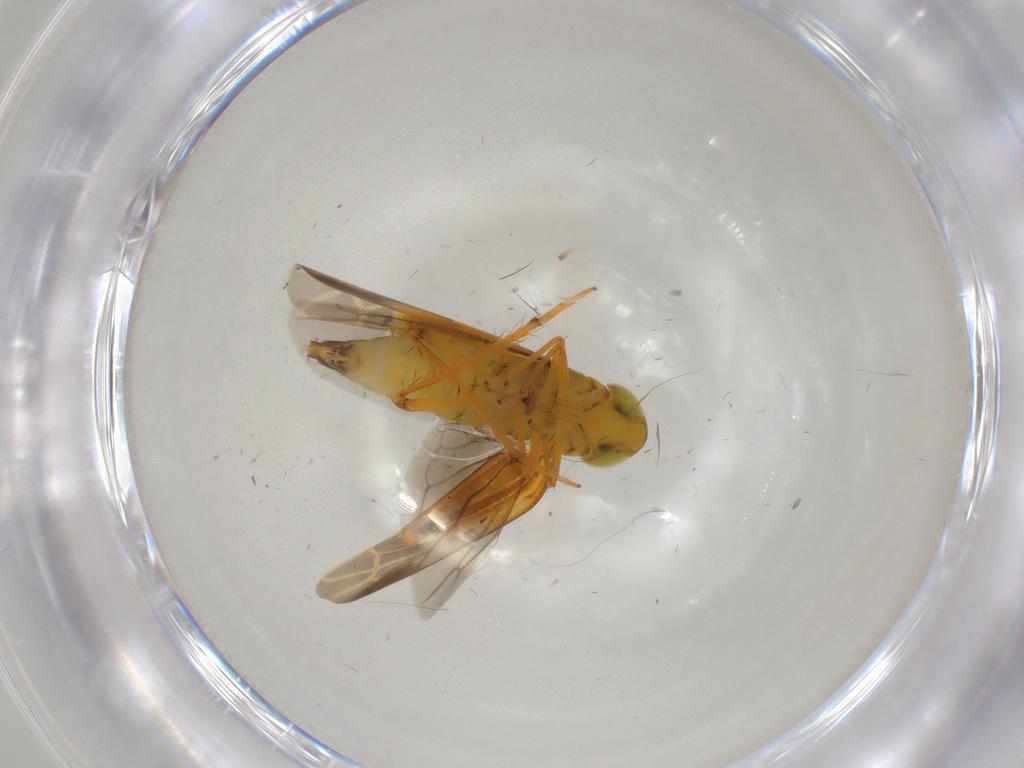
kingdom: Animalia
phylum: Arthropoda
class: Insecta
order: Hemiptera
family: Cicadellidae
